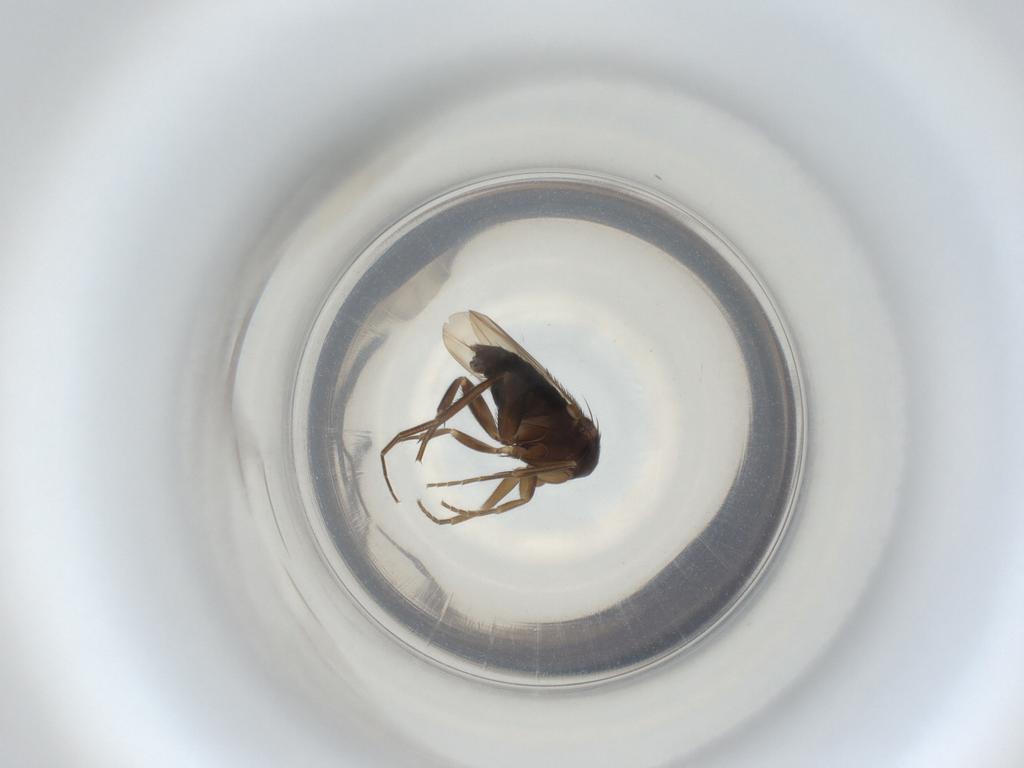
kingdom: Animalia
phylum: Arthropoda
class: Insecta
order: Diptera
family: Phoridae
